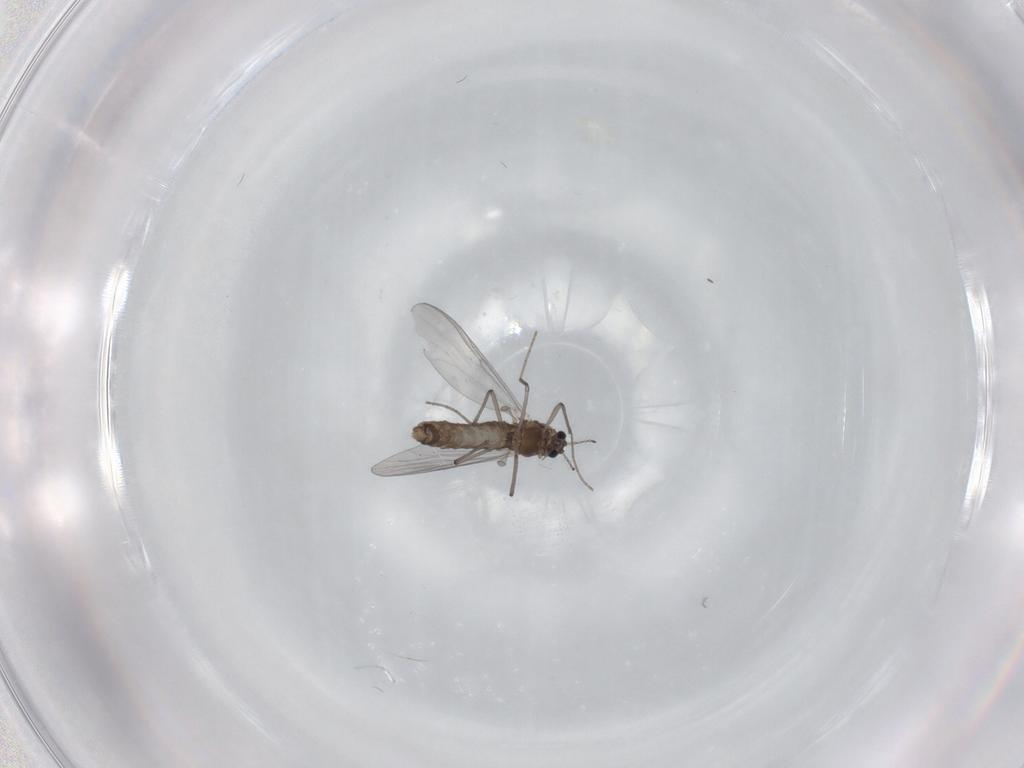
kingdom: Animalia
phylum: Arthropoda
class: Insecta
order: Diptera
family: Chironomidae
